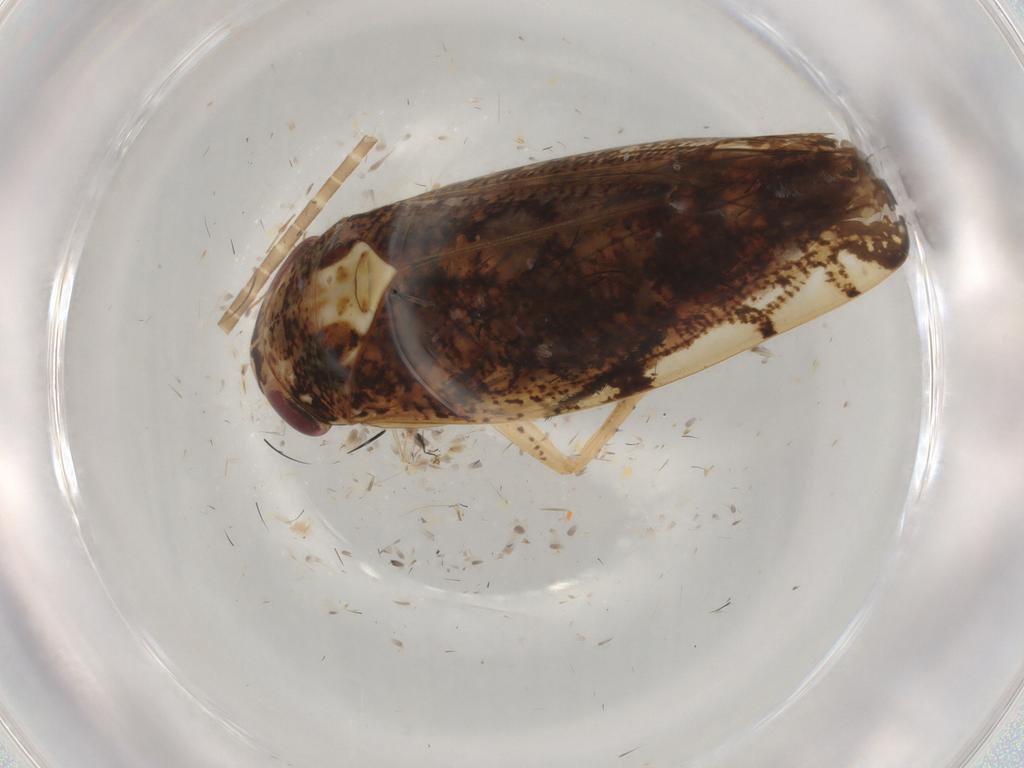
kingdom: Animalia
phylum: Arthropoda
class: Insecta
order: Hemiptera
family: Cicadellidae
